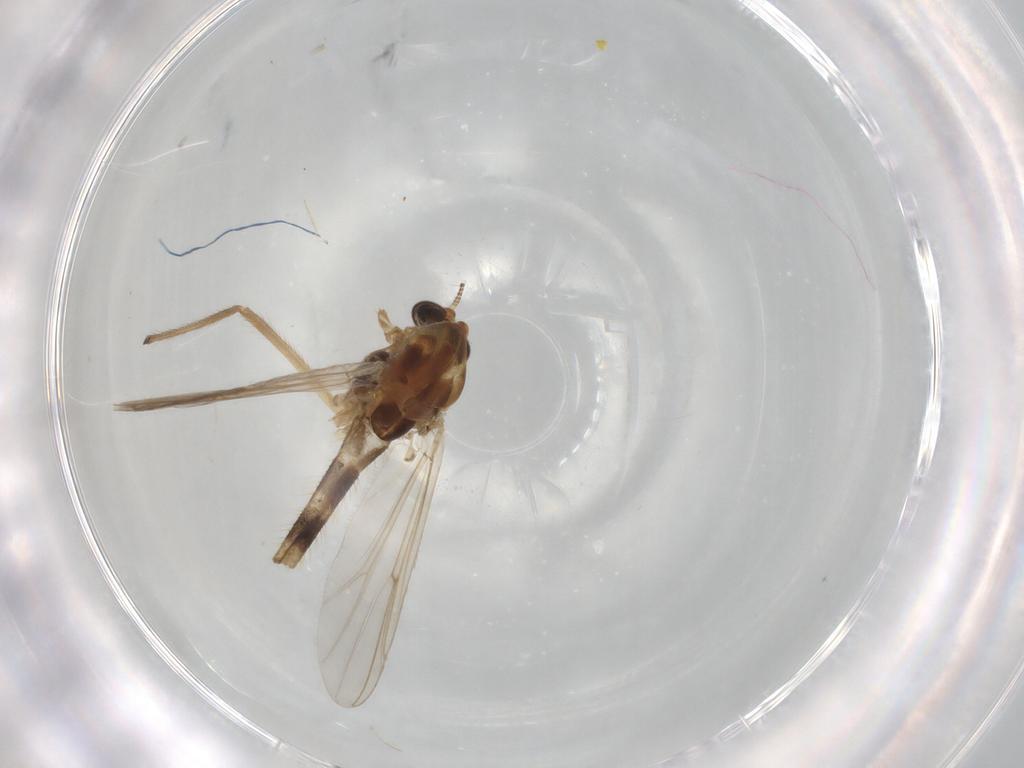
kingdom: Animalia
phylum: Arthropoda
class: Insecta
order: Diptera
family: Chironomidae
